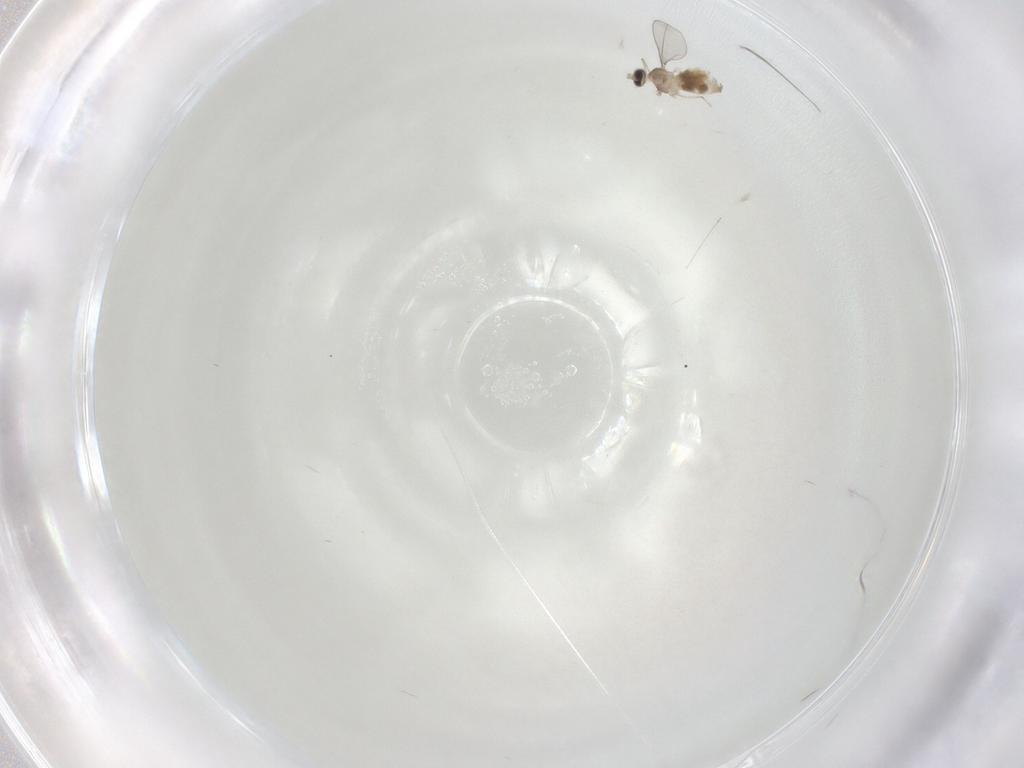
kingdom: Animalia
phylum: Arthropoda
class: Insecta
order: Diptera
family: Cecidomyiidae
